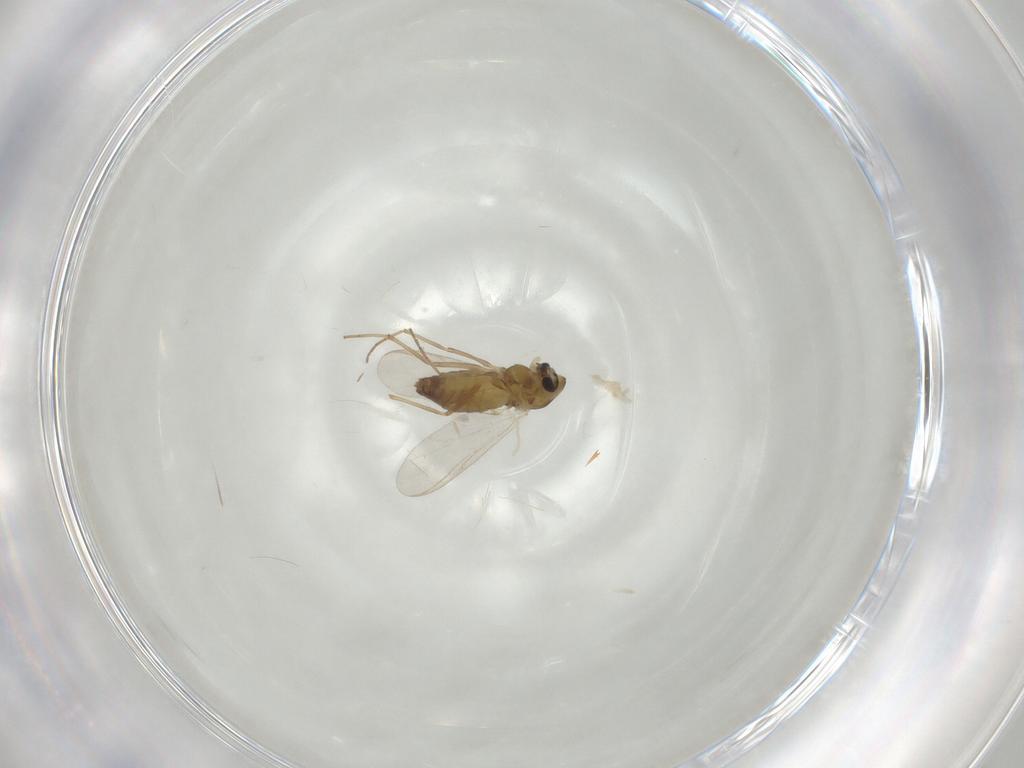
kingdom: Animalia
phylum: Arthropoda
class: Insecta
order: Diptera
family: Chironomidae
